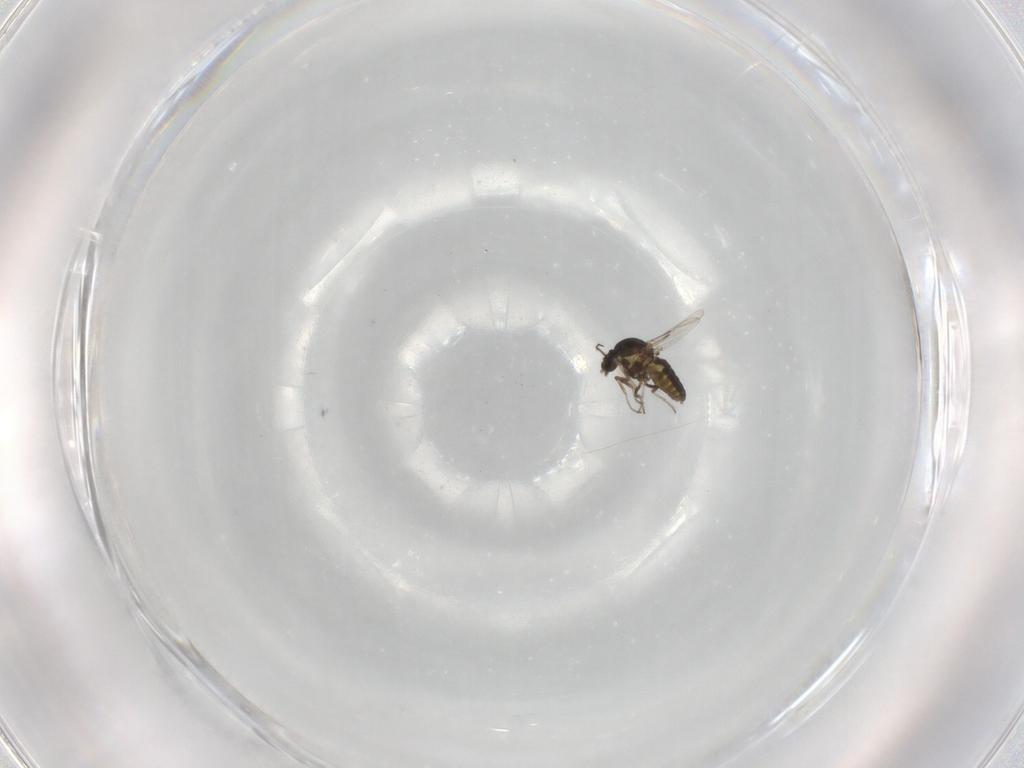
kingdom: Animalia
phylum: Arthropoda
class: Insecta
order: Diptera
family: Ceratopogonidae
